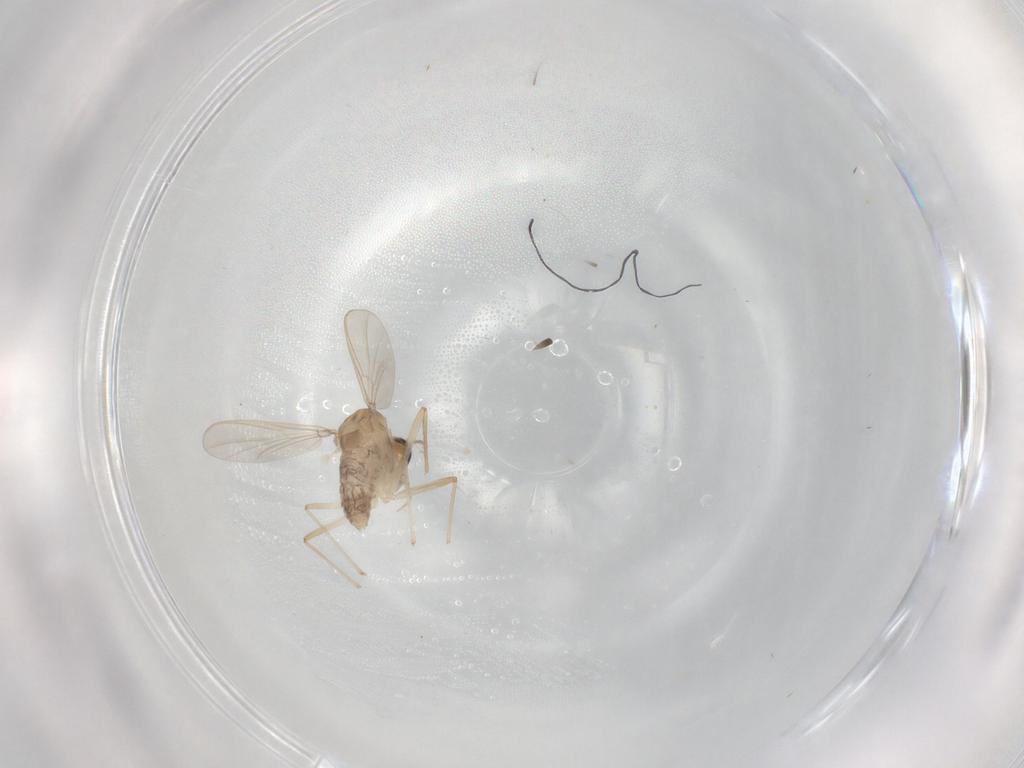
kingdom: Animalia
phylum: Arthropoda
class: Insecta
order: Diptera
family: Chironomidae
